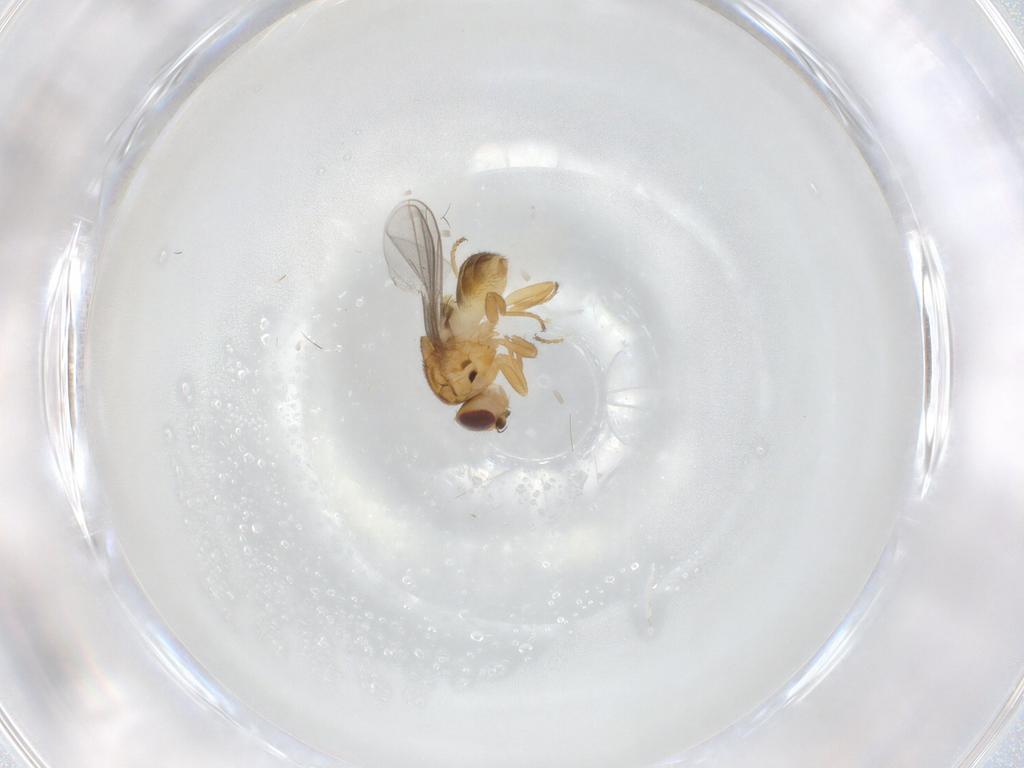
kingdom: Animalia
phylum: Arthropoda
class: Insecta
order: Diptera
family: Chloropidae
